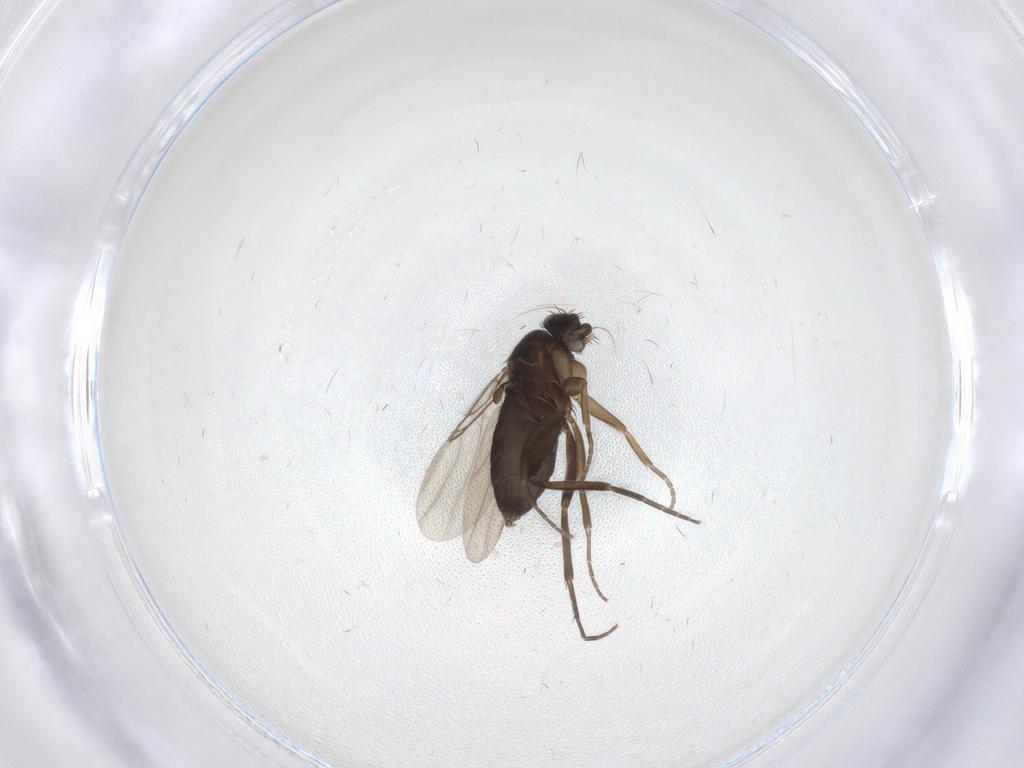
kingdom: Animalia
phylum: Arthropoda
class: Insecta
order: Diptera
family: Phoridae
